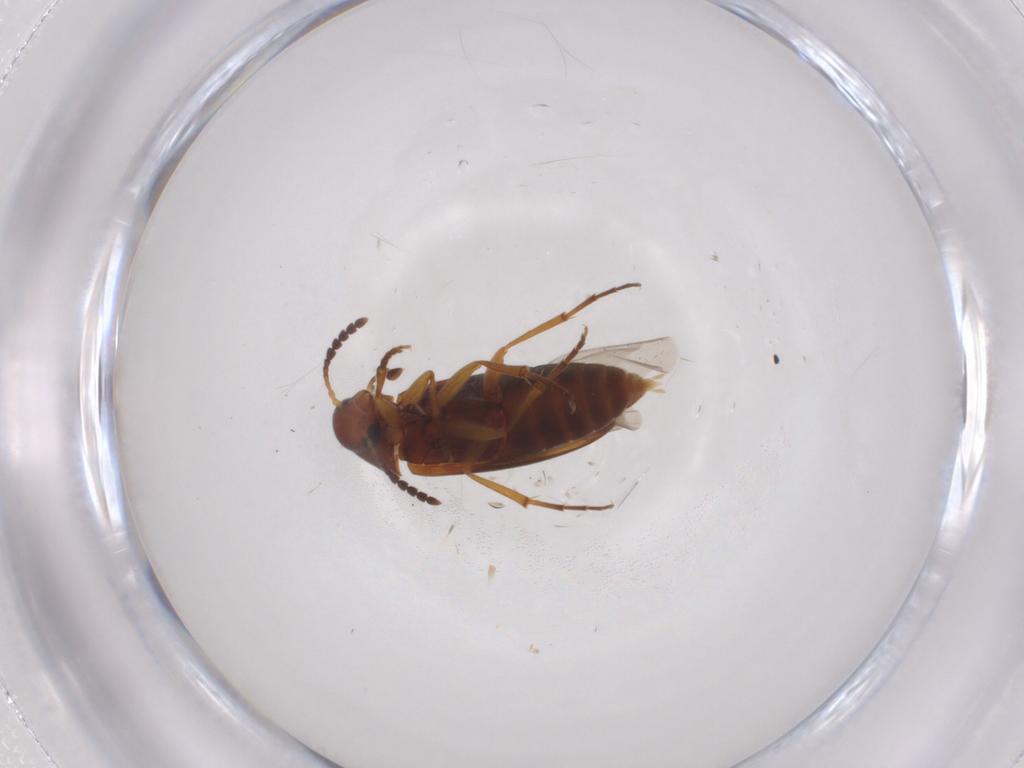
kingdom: Animalia
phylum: Arthropoda
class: Insecta
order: Coleoptera
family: Scraptiidae
